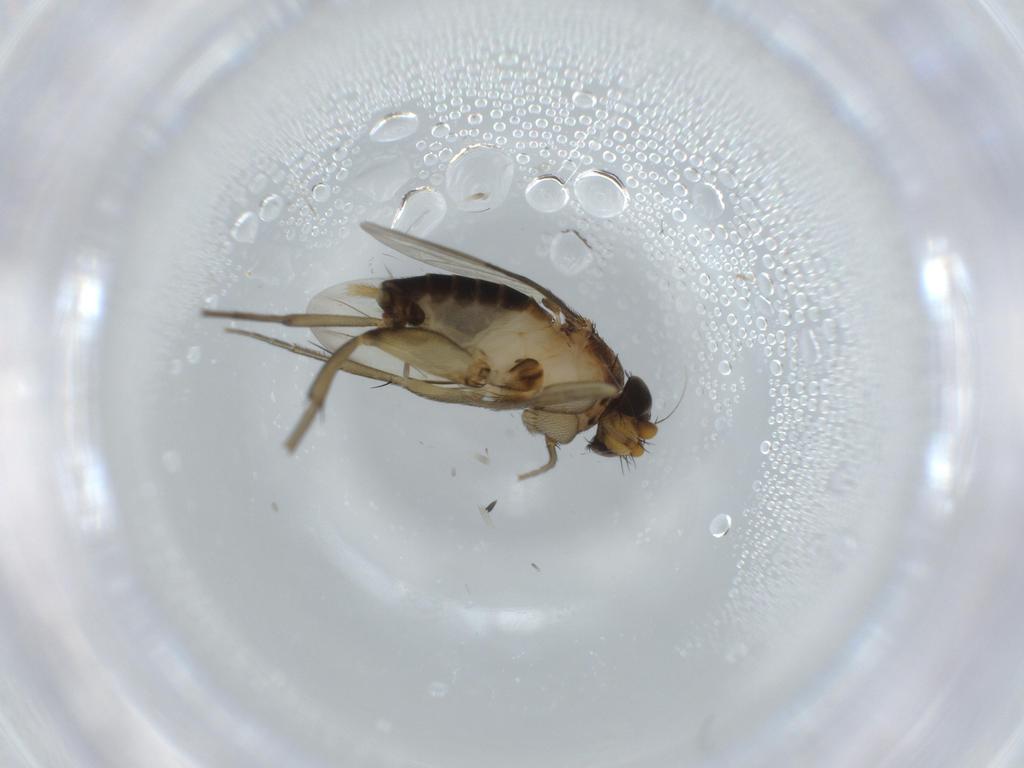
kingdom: Animalia
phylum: Arthropoda
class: Insecta
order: Diptera
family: Phoridae
